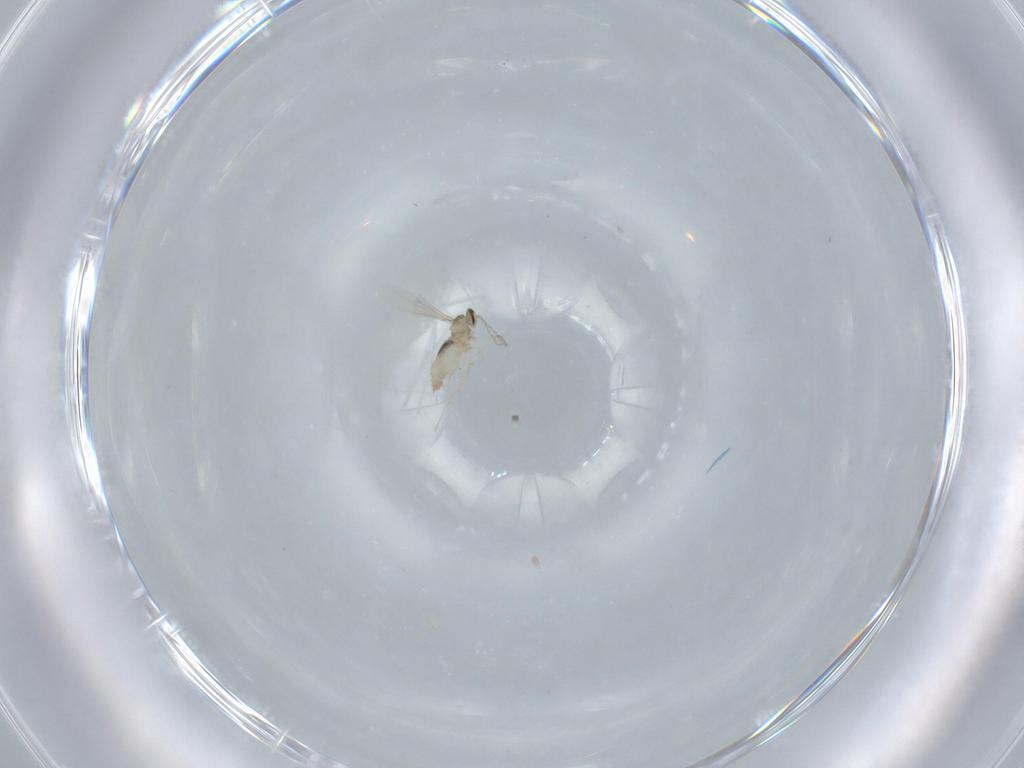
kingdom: Animalia
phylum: Arthropoda
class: Insecta
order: Diptera
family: Cecidomyiidae
